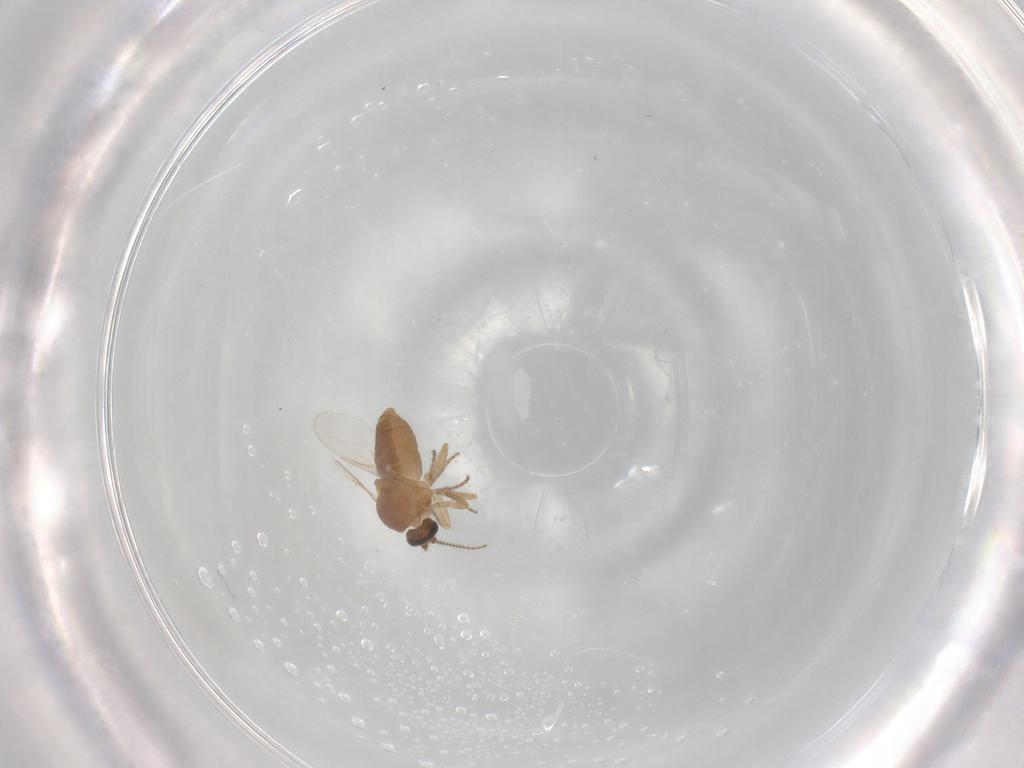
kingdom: Animalia
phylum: Arthropoda
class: Insecta
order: Diptera
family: Ceratopogonidae
